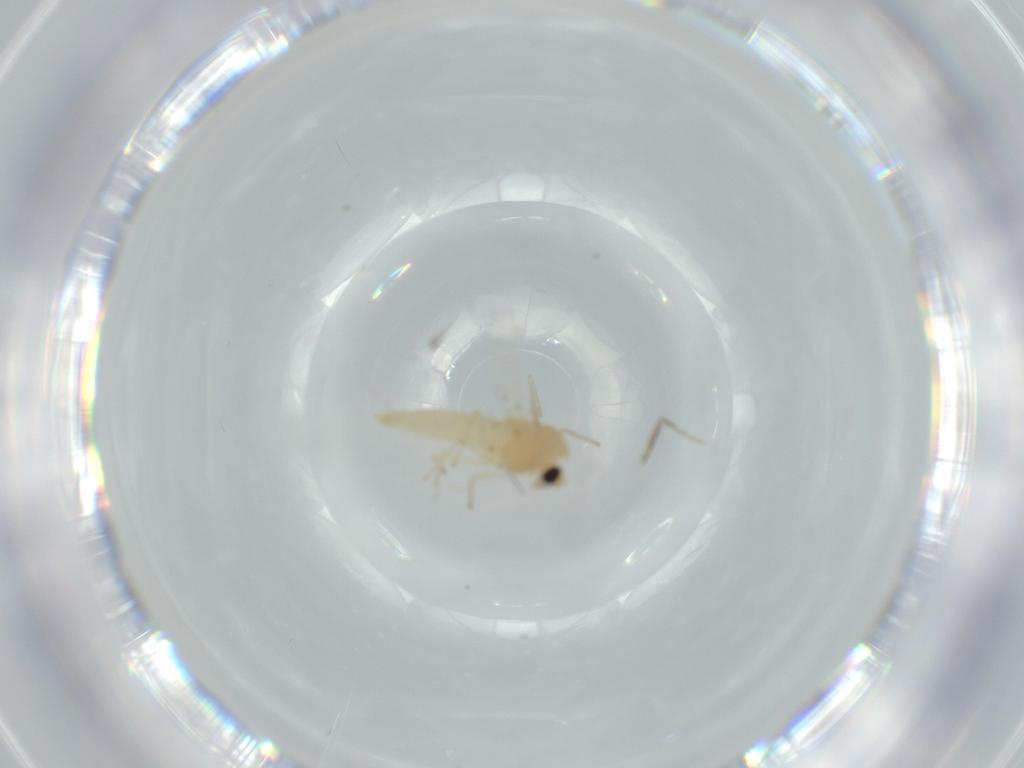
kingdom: Animalia
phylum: Arthropoda
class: Insecta
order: Diptera
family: Chironomidae
